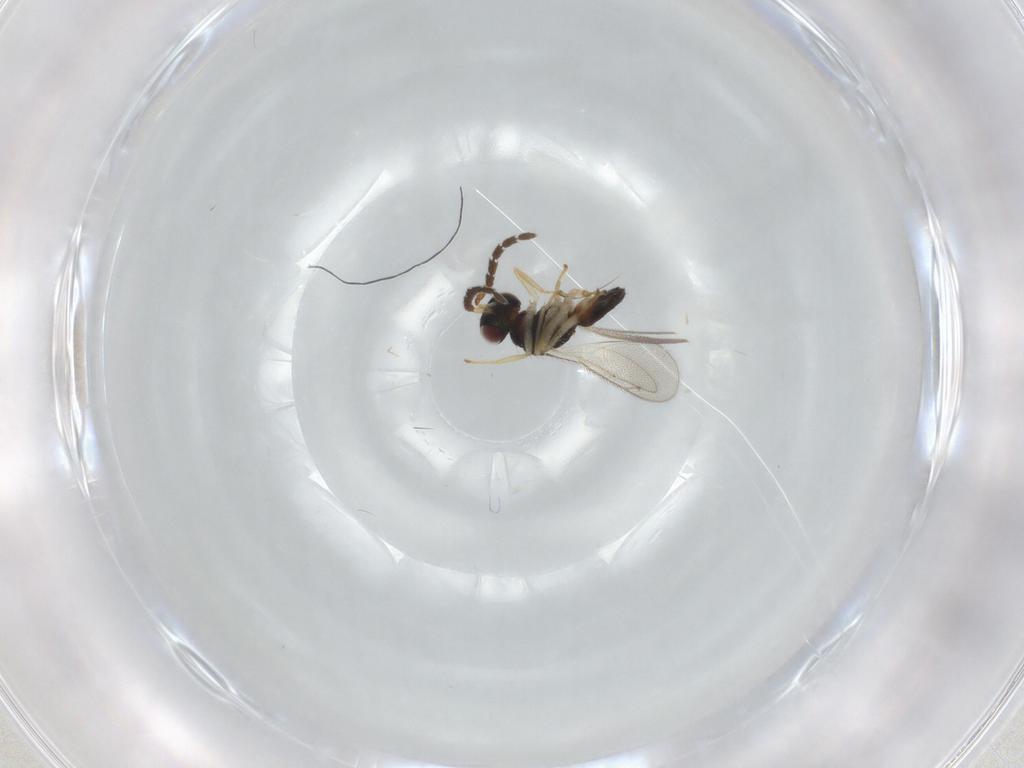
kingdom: Animalia
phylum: Arthropoda
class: Insecta
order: Hymenoptera
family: Eulophidae
